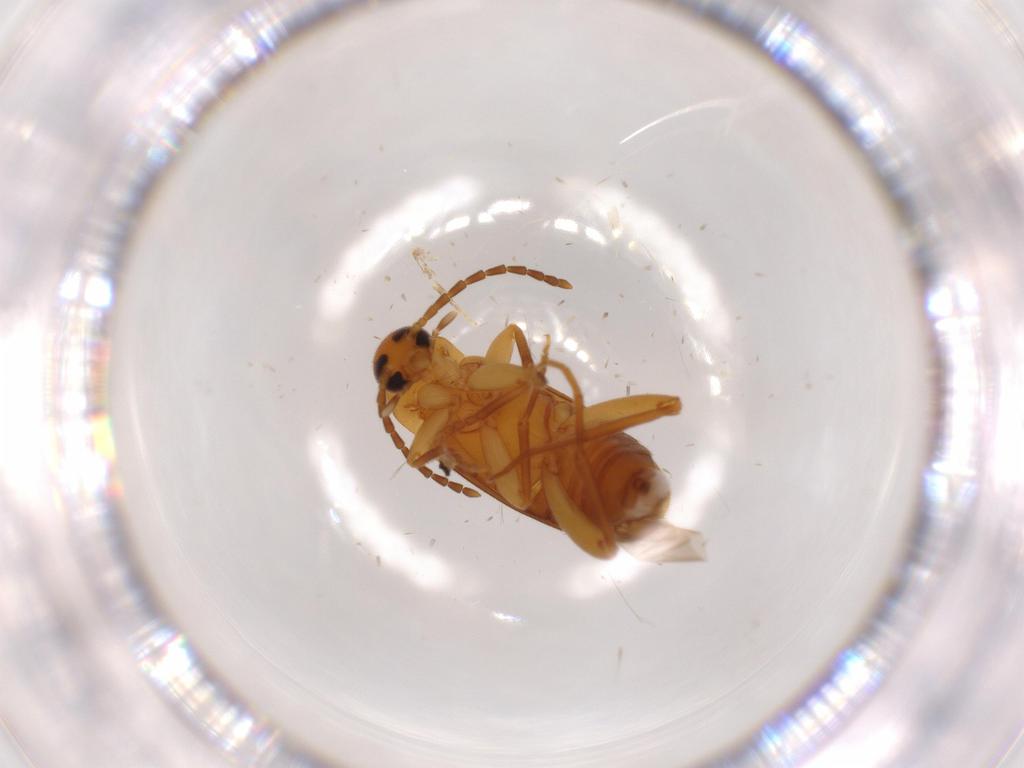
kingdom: Animalia
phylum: Arthropoda
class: Insecta
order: Coleoptera
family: Scraptiidae
